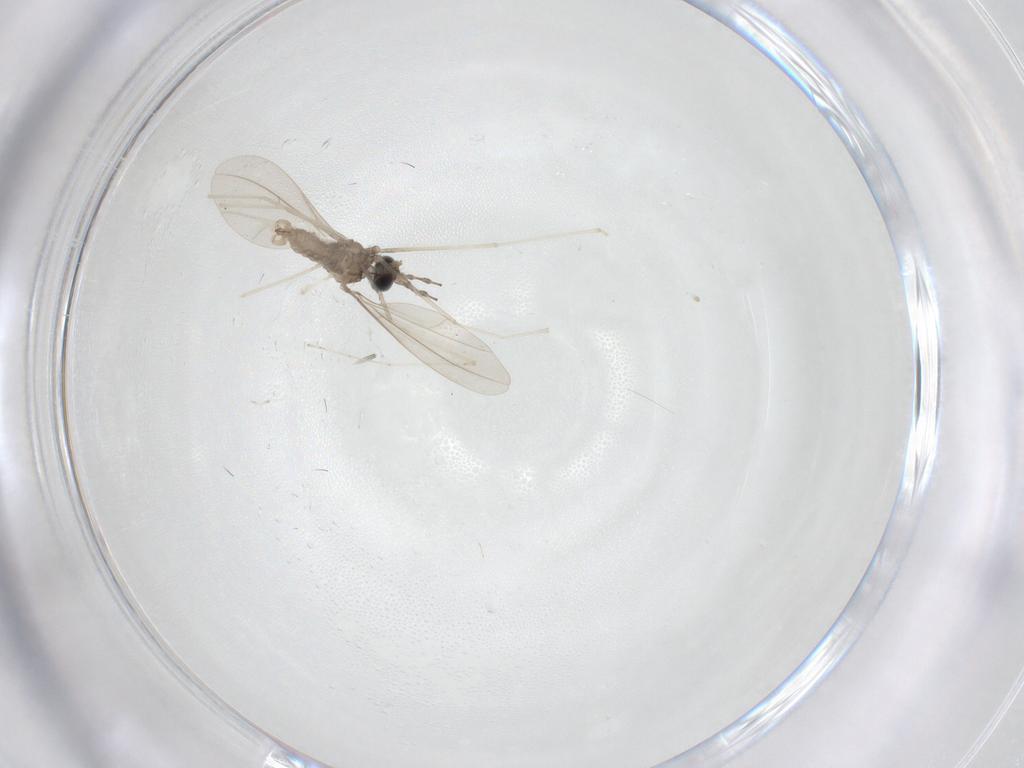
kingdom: Animalia
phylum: Arthropoda
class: Insecta
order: Diptera
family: Cecidomyiidae
